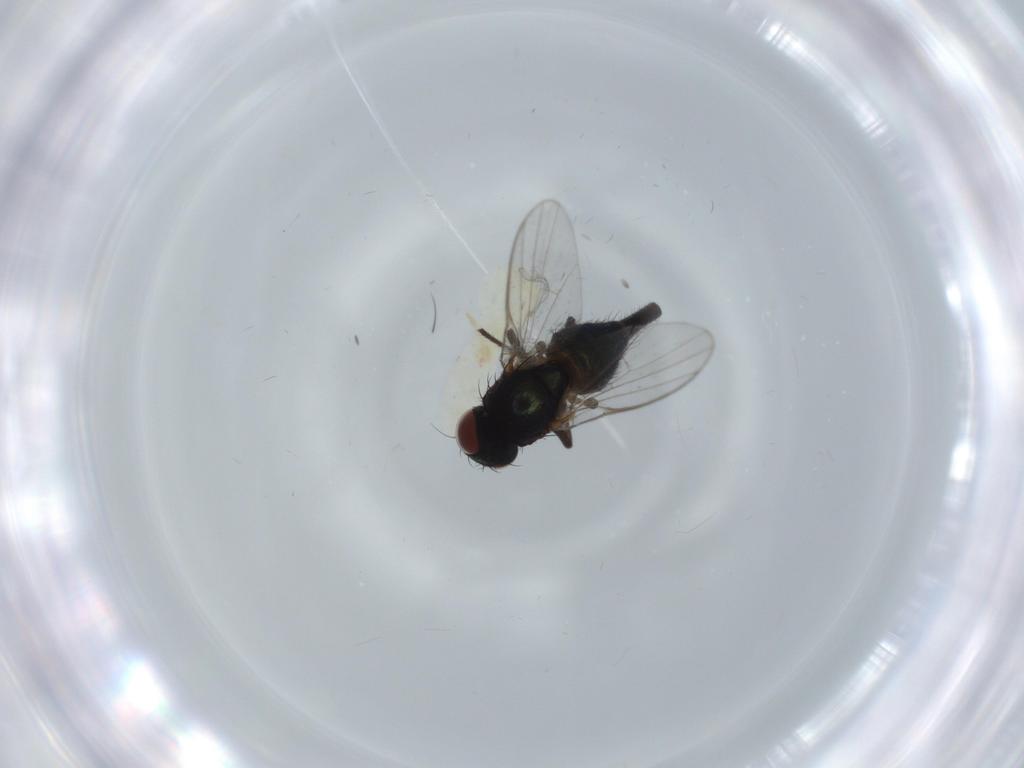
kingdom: Animalia
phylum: Arthropoda
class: Insecta
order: Diptera
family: Agromyzidae
